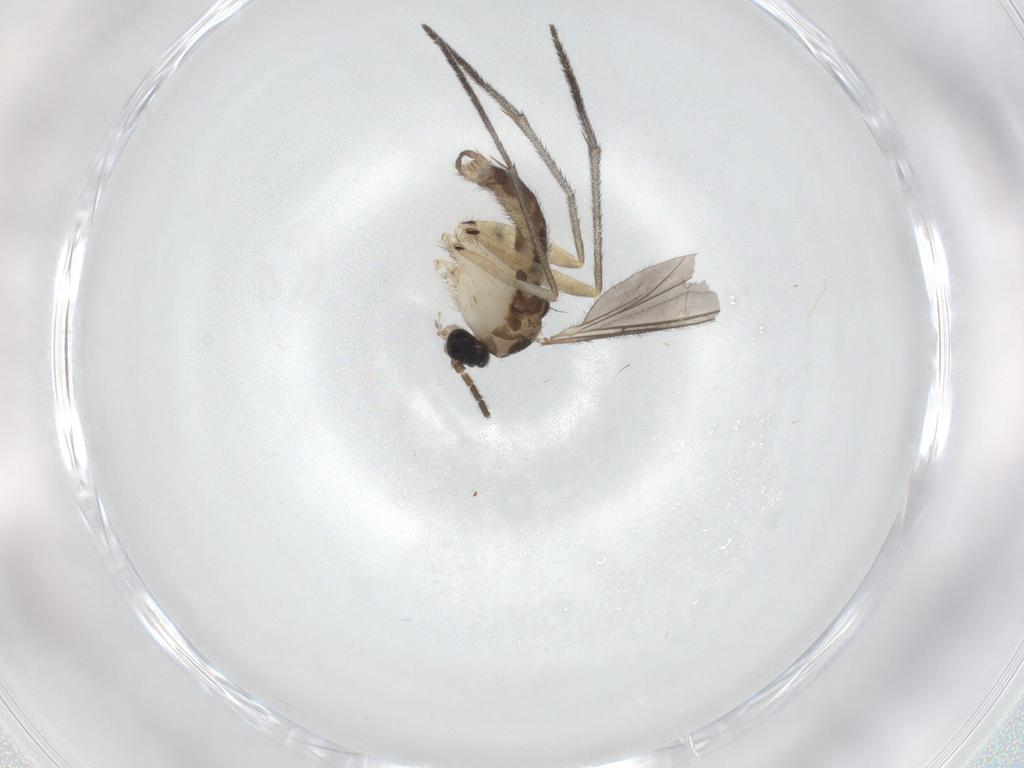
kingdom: Animalia
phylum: Arthropoda
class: Insecta
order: Diptera
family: Sciaridae
